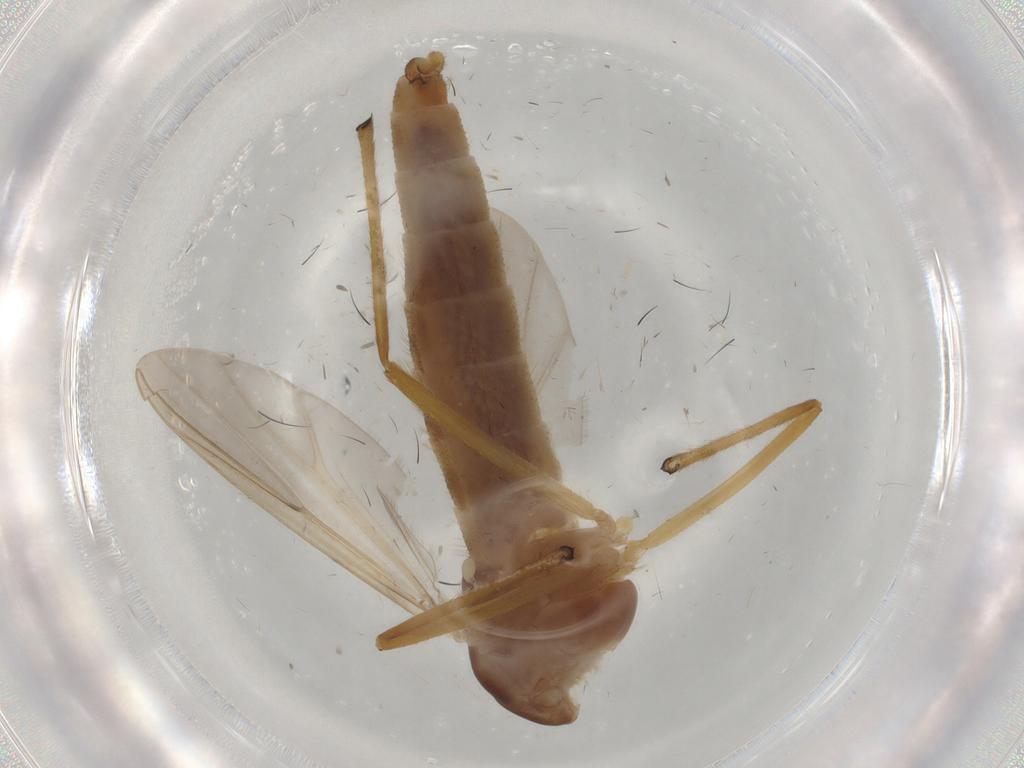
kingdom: Animalia
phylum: Arthropoda
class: Insecta
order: Diptera
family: Chironomidae
